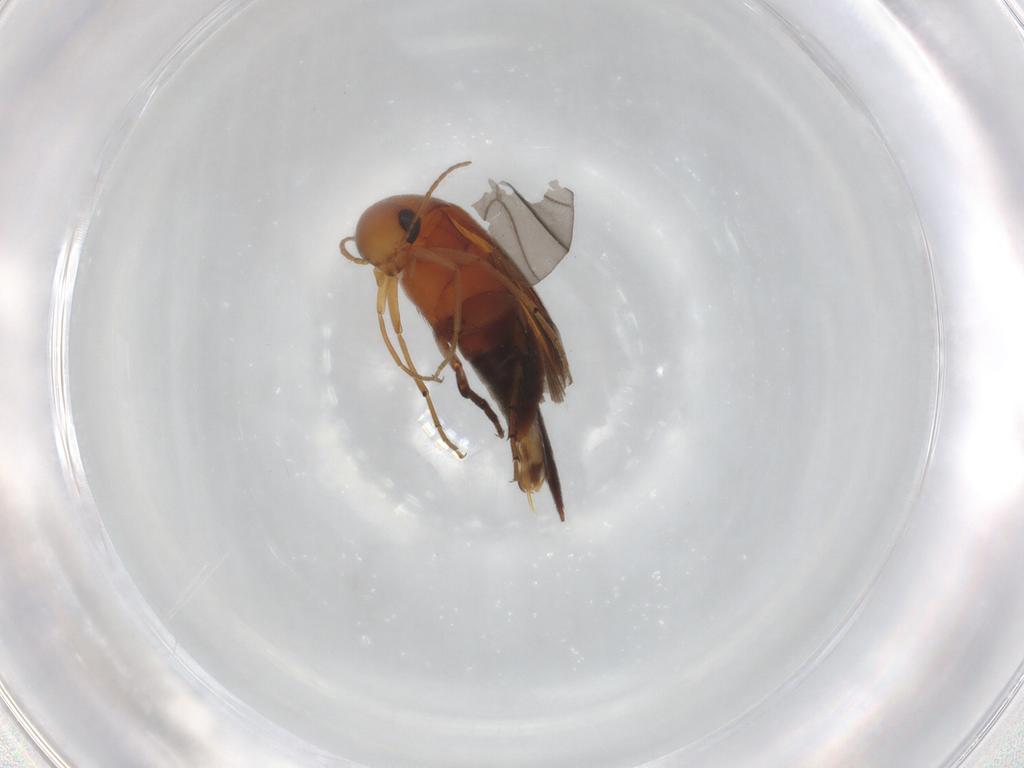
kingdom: Animalia
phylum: Arthropoda
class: Insecta
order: Coleoptera
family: Lampyridae
